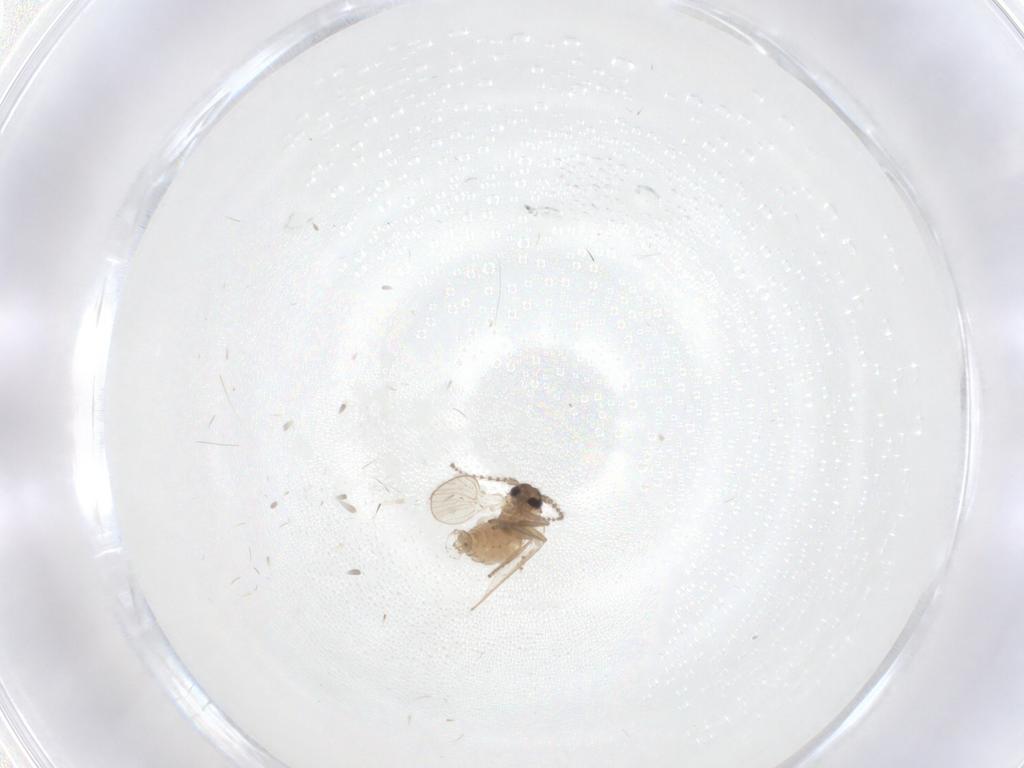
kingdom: Animalia
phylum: Arthropoda
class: Insecta
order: Diptera
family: Psychodidae
